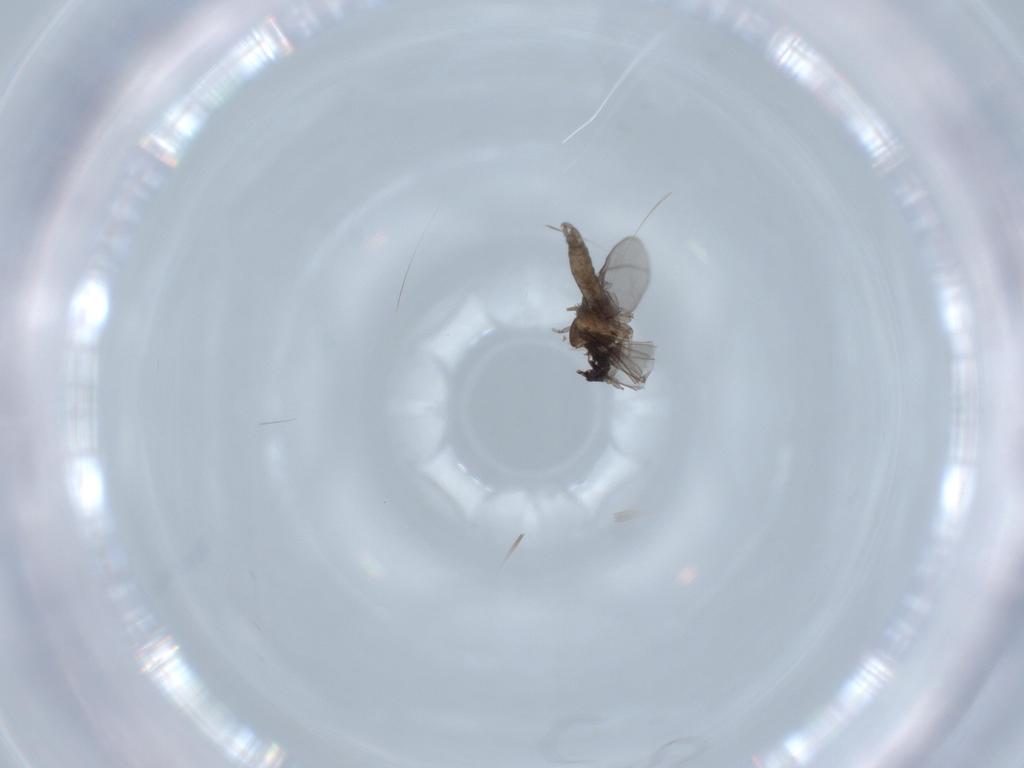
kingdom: Animalia
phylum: Arthropoda
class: Insecta
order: Diptera
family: Cecidomyiidae
